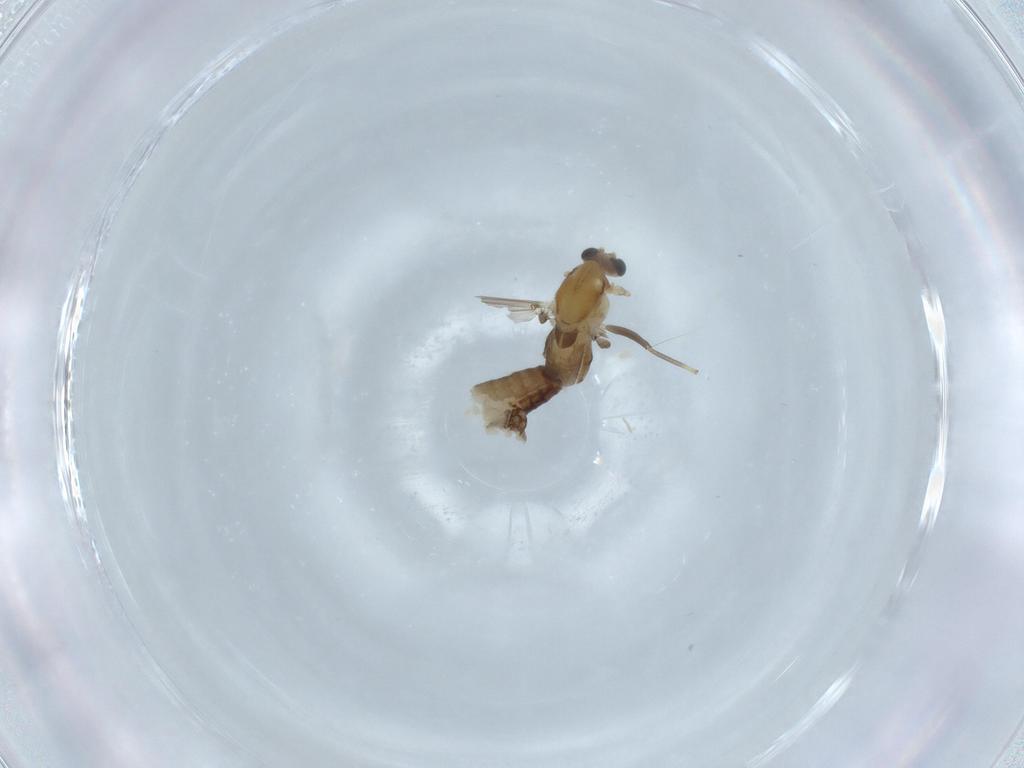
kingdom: Animalia
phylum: Arthropoda
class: Insecta
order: Diptera
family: Chironomidae
